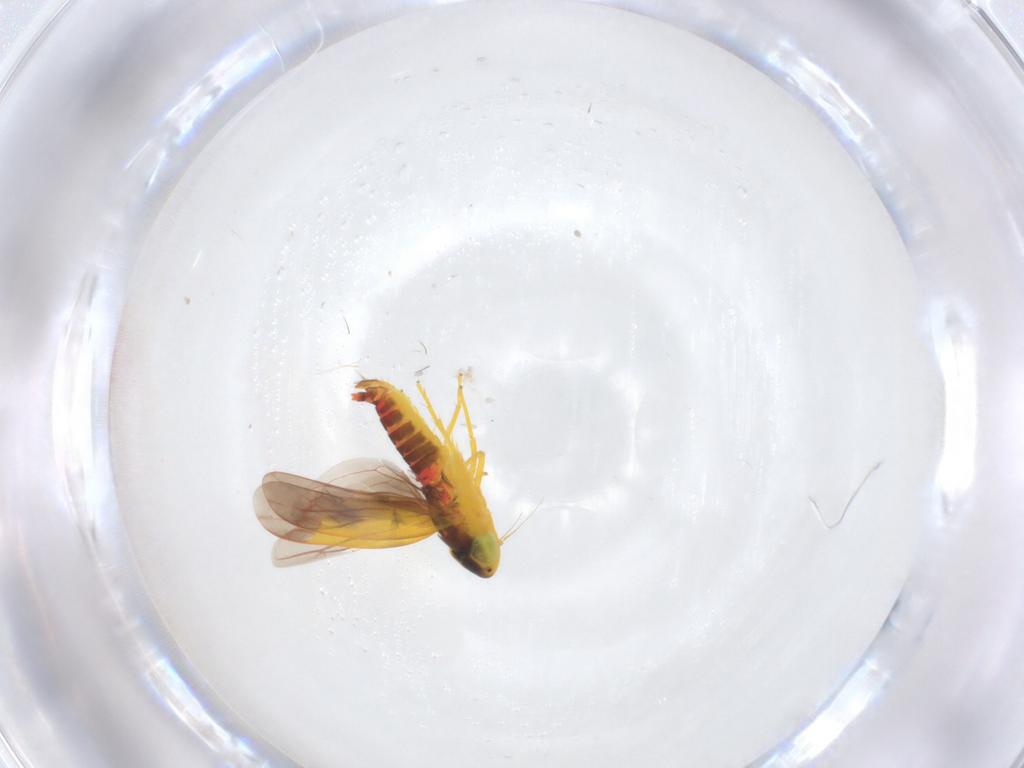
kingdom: Animalia
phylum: Arthropoda
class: Insecta
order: Hemiptera
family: Cicadellidae
